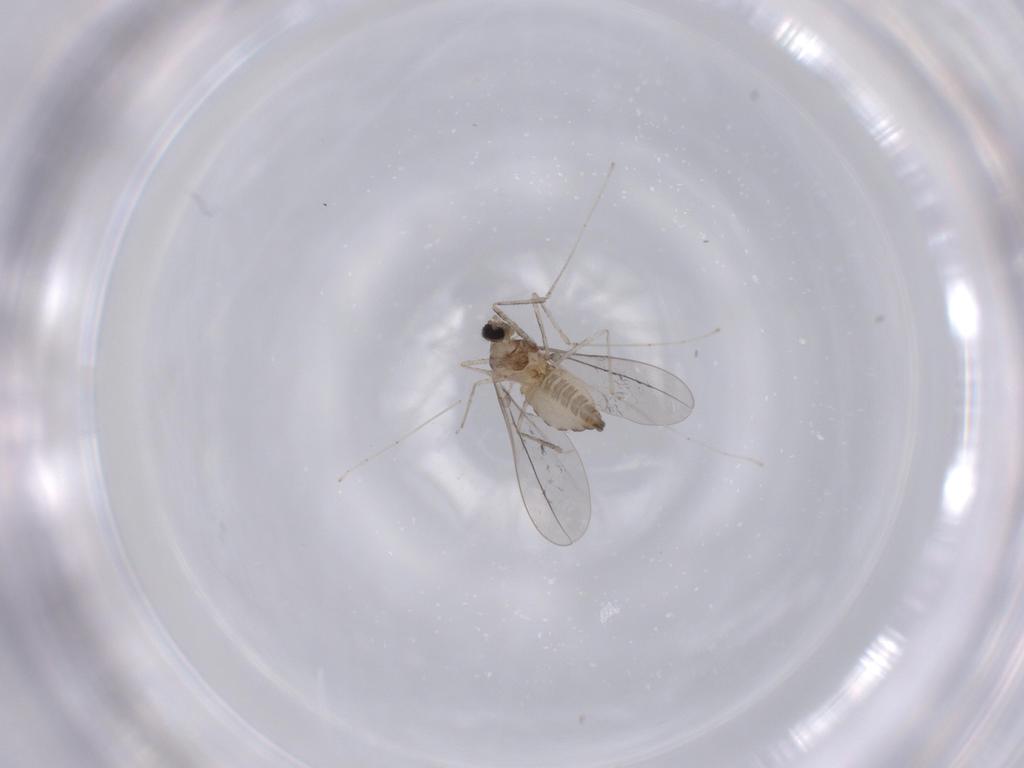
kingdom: Animalia
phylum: Arthropoda
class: Insecta
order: Diptera
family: Cecidomyiidae
